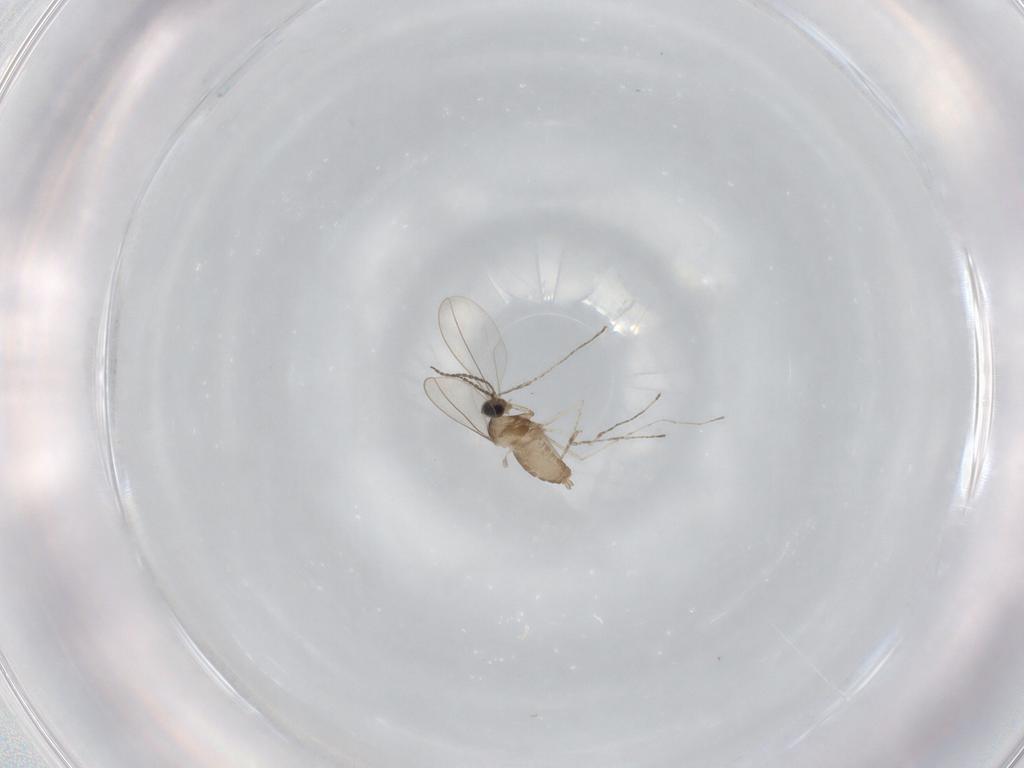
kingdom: Animalia
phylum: Arthropoda
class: Insecta
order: Diptera
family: Cecidomyiidae
